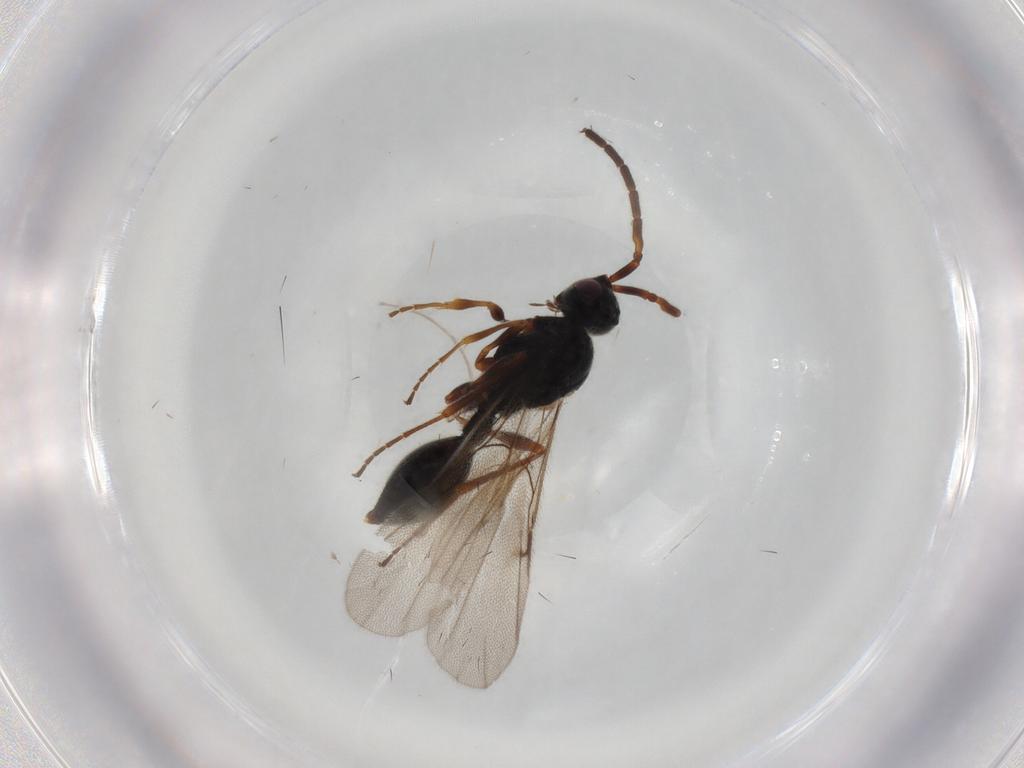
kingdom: Animalia
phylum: Arthropoda
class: Insecta
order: Hymenoptera
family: Ichneumonidae
